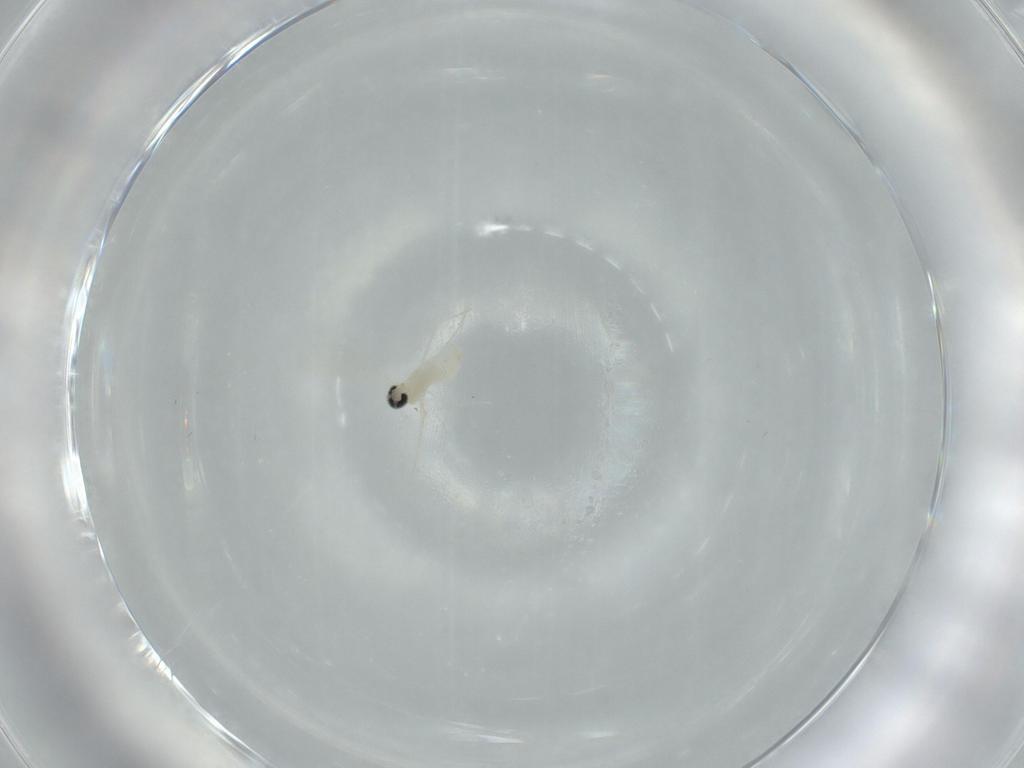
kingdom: Animalia
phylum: Arthropoda
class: Insecta
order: Diptera
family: Cecidomyiidae
